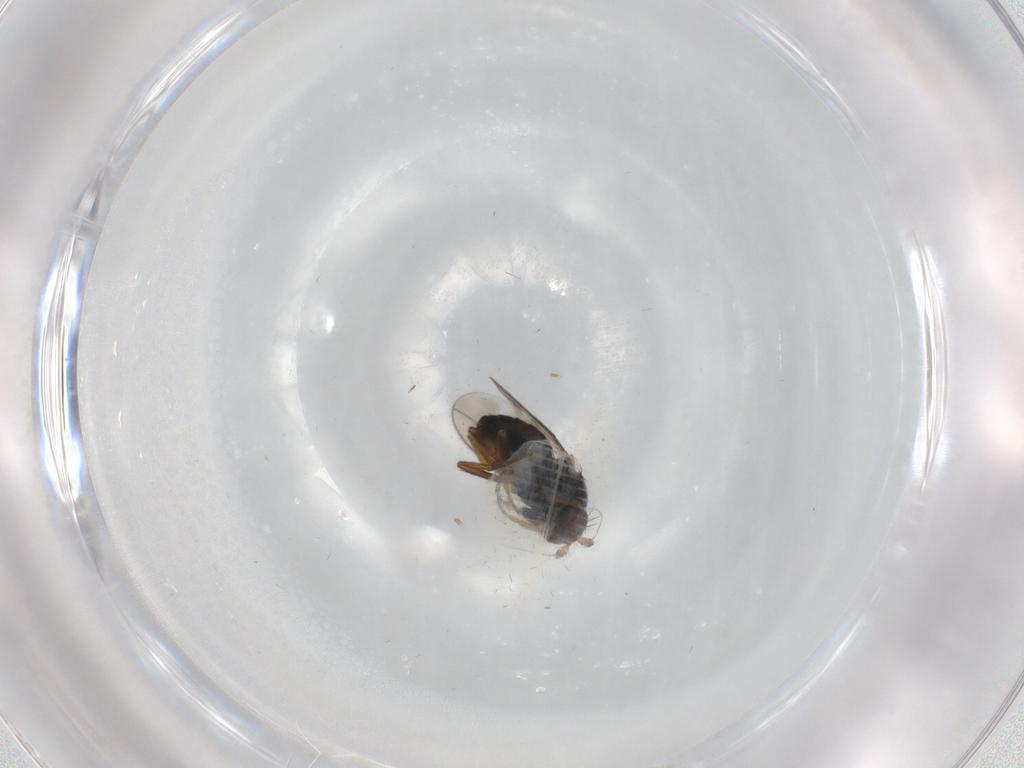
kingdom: Animalia
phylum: Arthropoda
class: Insecta
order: Diptera
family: Sphaeroceridae
